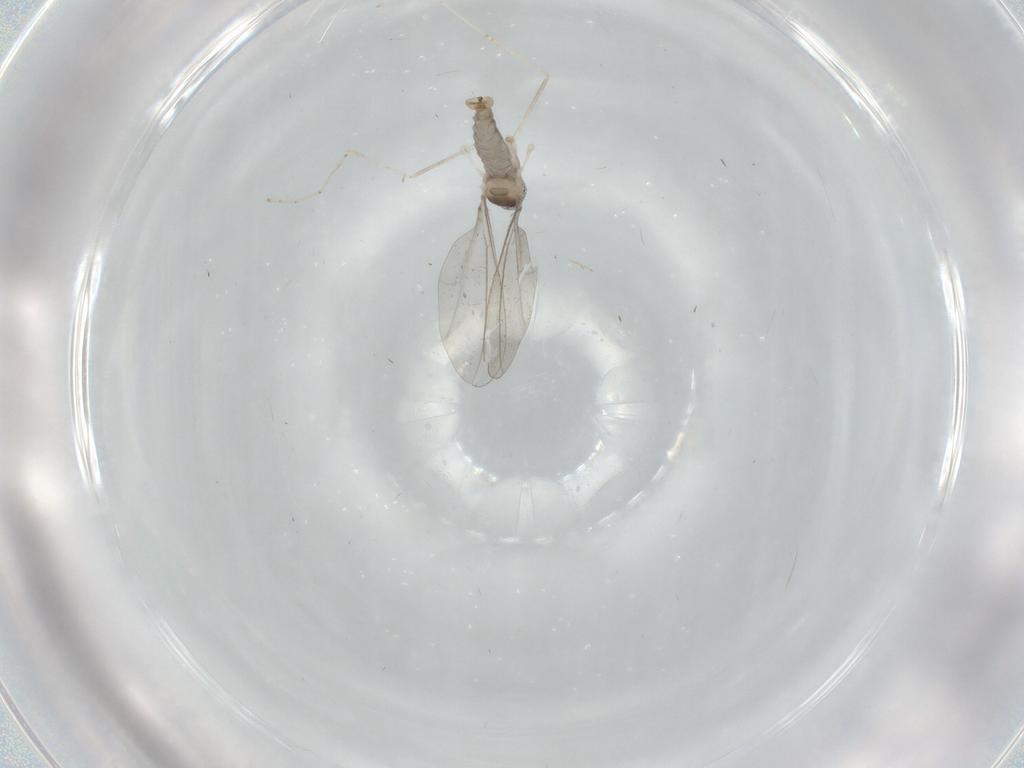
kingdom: Animalia
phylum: Arthropoda
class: Insecta
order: Diptera
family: Cecidomyiidae
